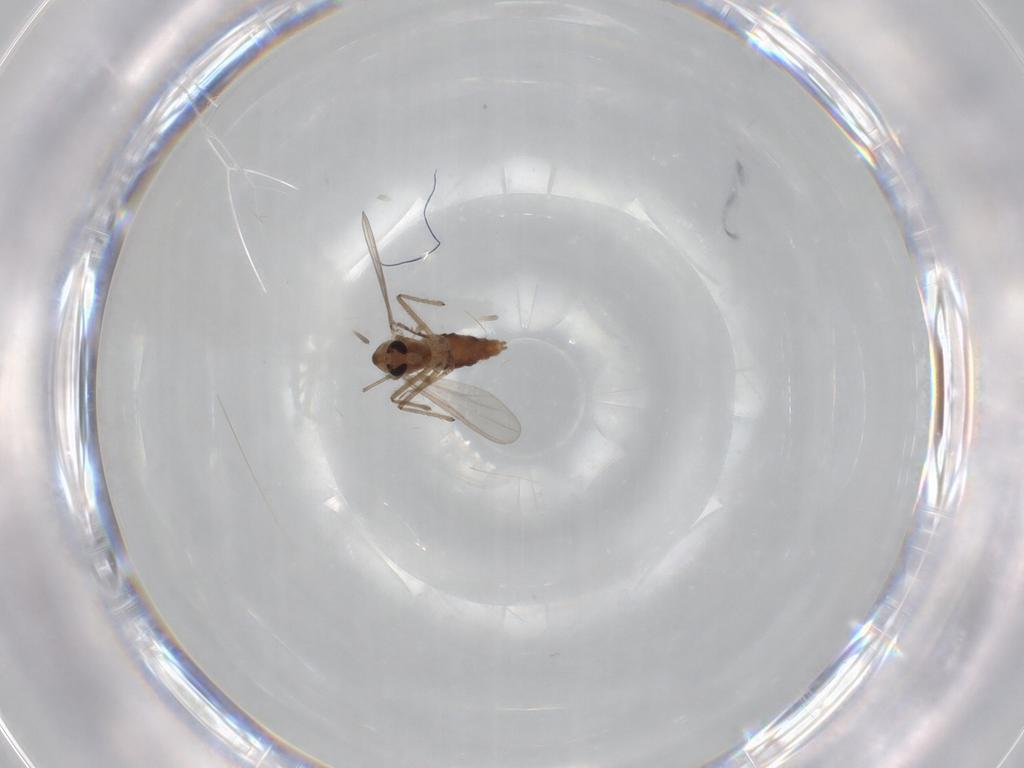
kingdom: Animalia
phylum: Arthropoda
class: Insecta
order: Diptera
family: Chironomidae
